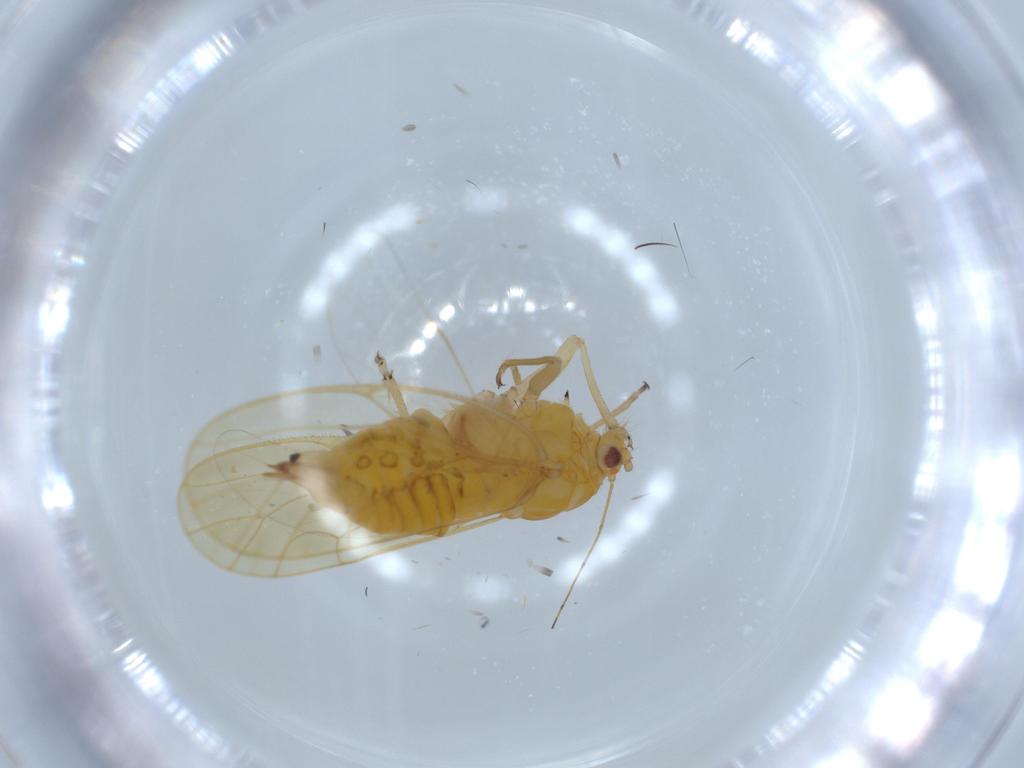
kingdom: Animalia
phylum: Arthropoda
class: Insecta
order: Hemiptera
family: Psyllidae
